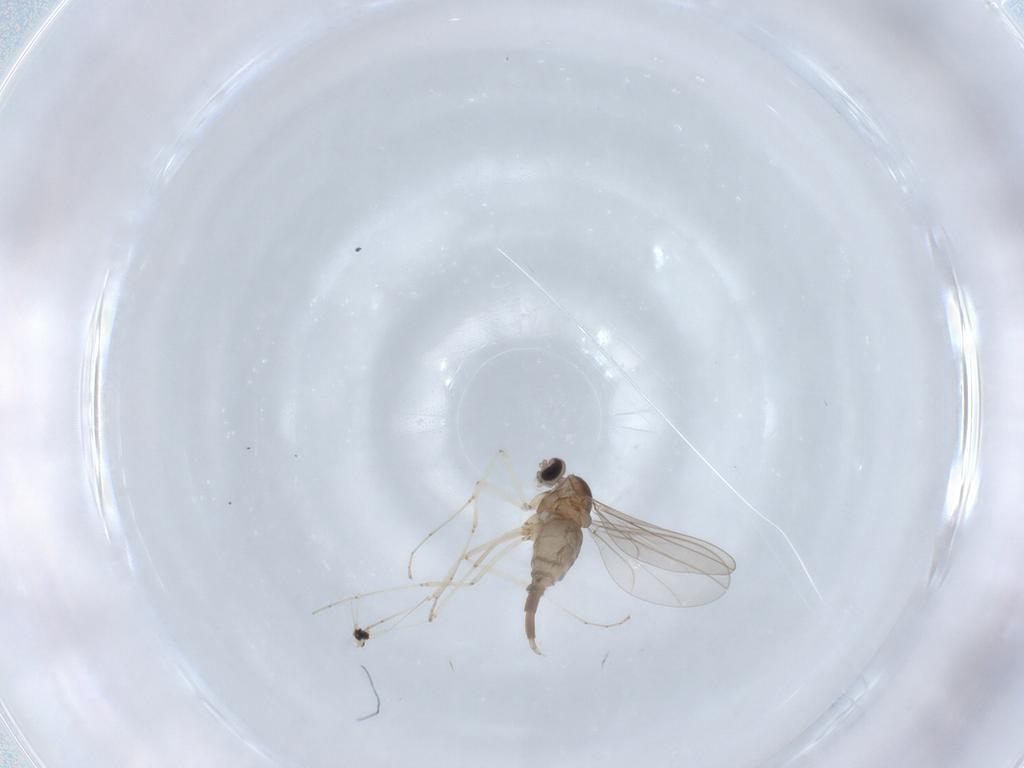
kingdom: Animalia
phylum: Arthropoda
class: Insecta
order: Diptera
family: Cecidomyiidae
